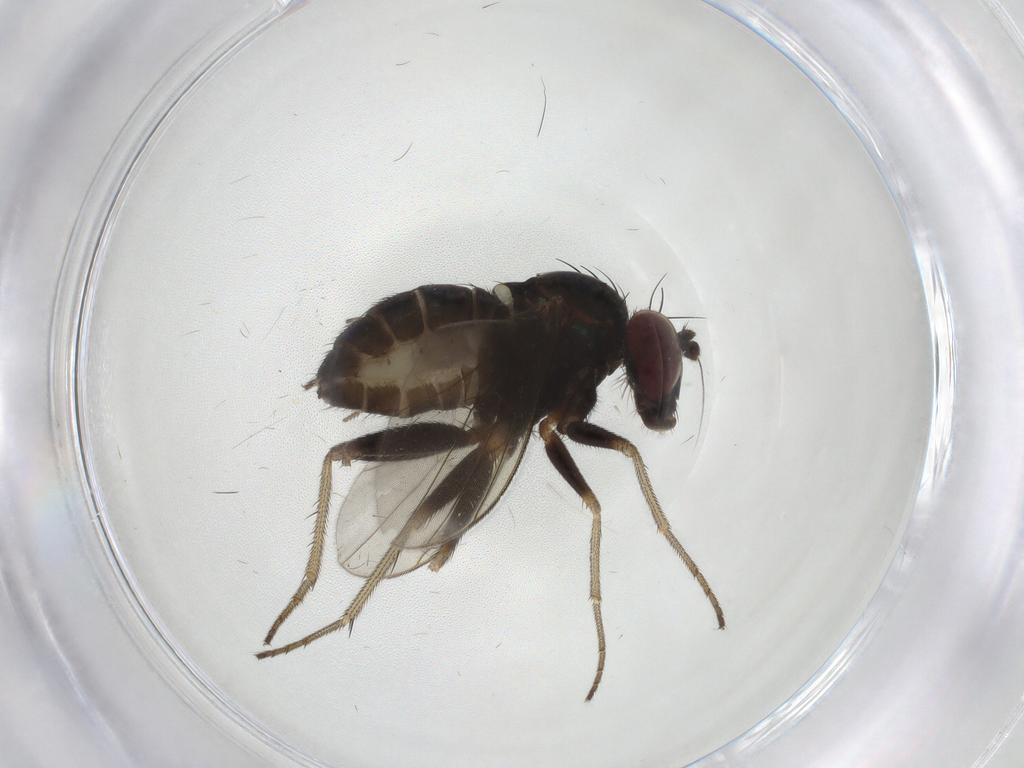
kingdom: Animalia
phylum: Arthropoda
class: Insecta
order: Diptera
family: Dolichopodidae
